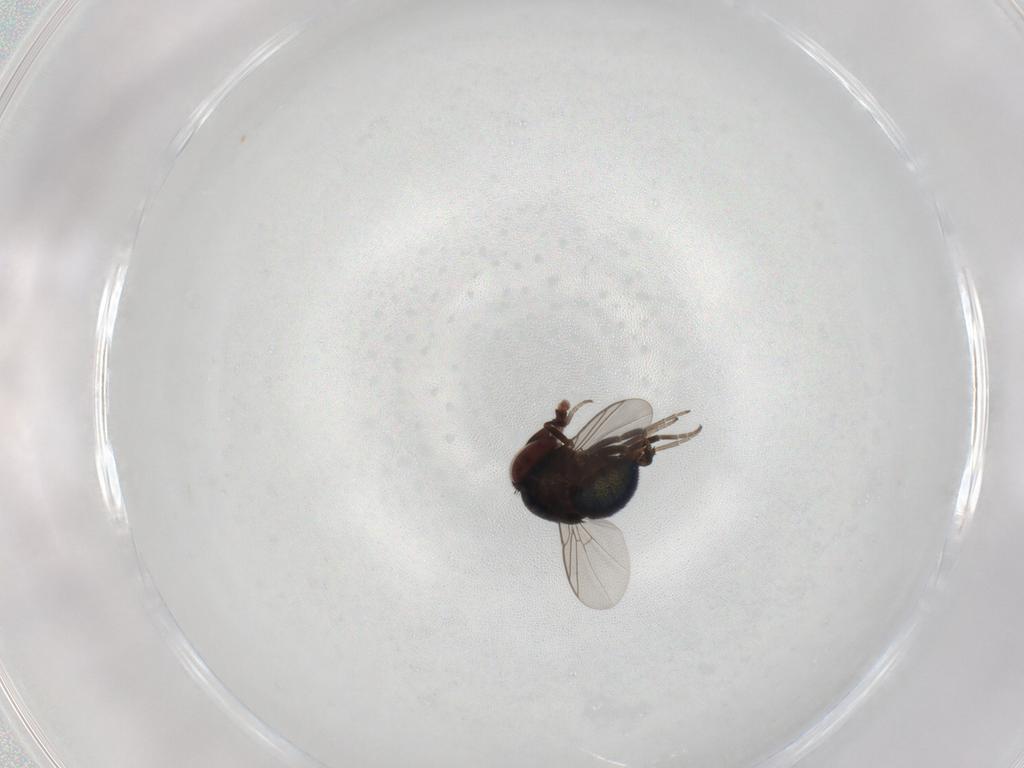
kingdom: Animalia
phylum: Arthropoda
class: Insecta
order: Diptera
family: Cryptochetidae
